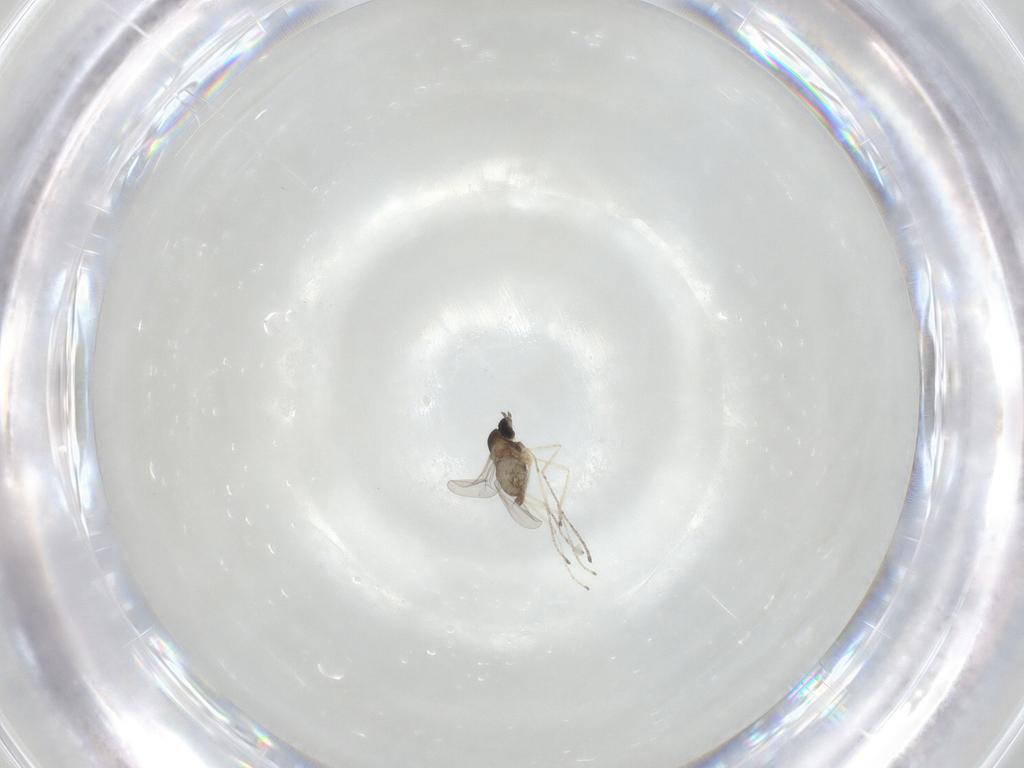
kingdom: Animalia
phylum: Arthropoda
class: Insecta
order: Diptera
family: Cecidomyiidae
